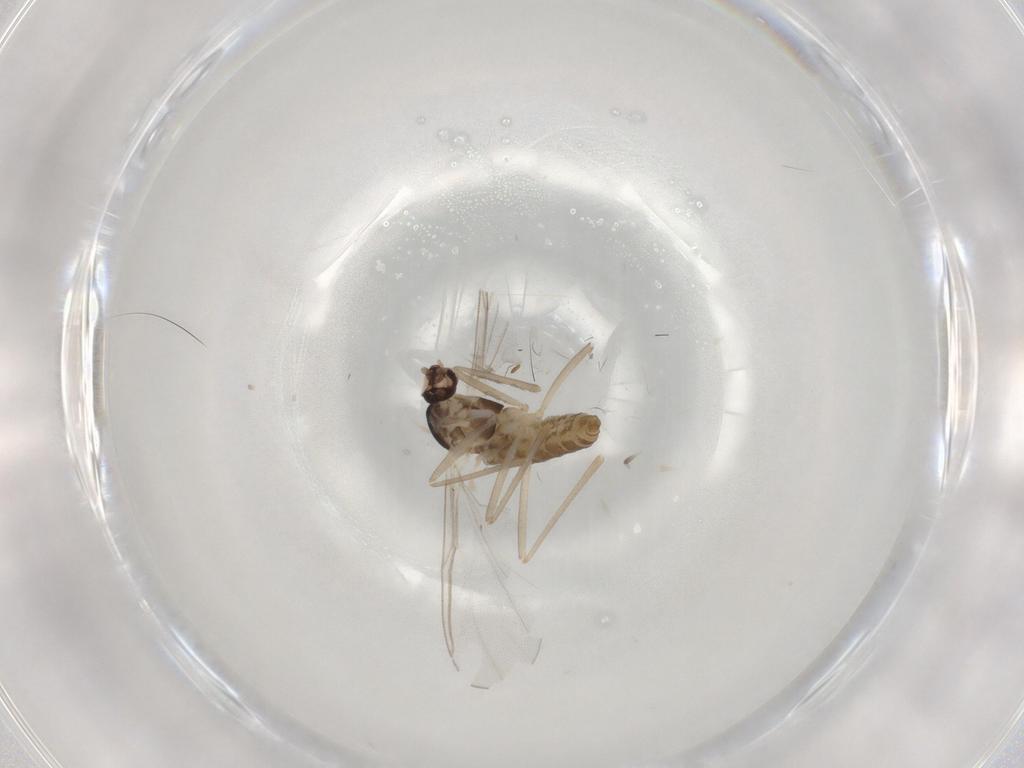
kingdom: Animalia
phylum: Arthropoda
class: Insecta
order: Diptera
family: Cecidomyiidae
